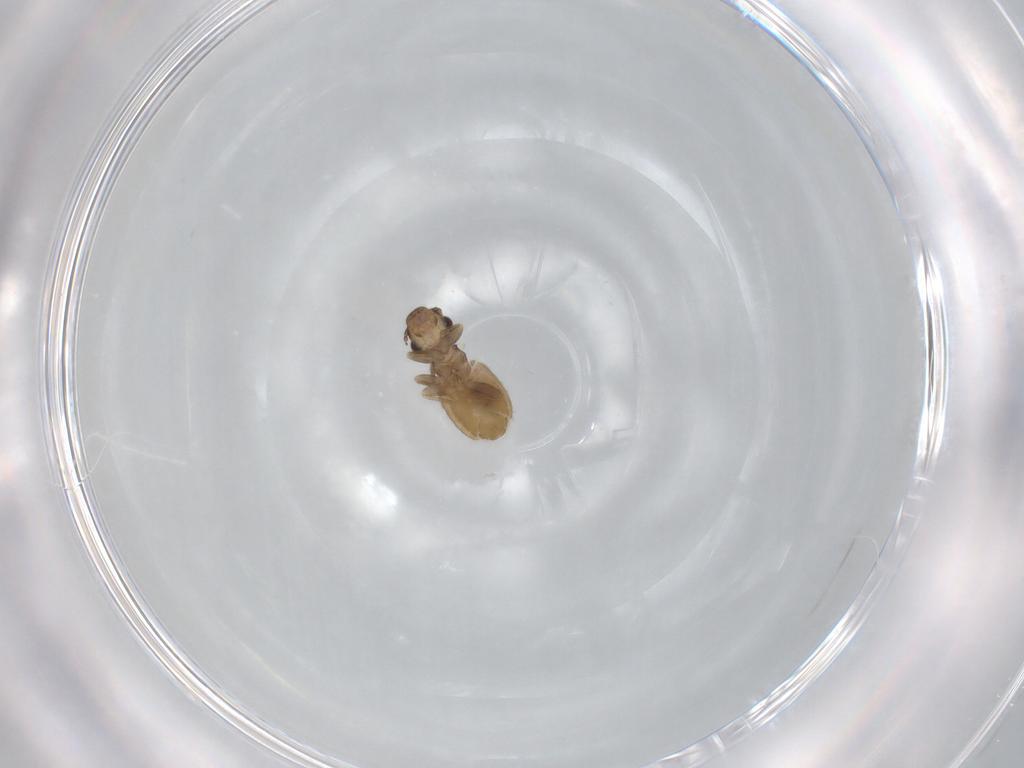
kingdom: Animalia
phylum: Arthropoda
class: Insecta
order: Psocodea
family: Trogiidae
